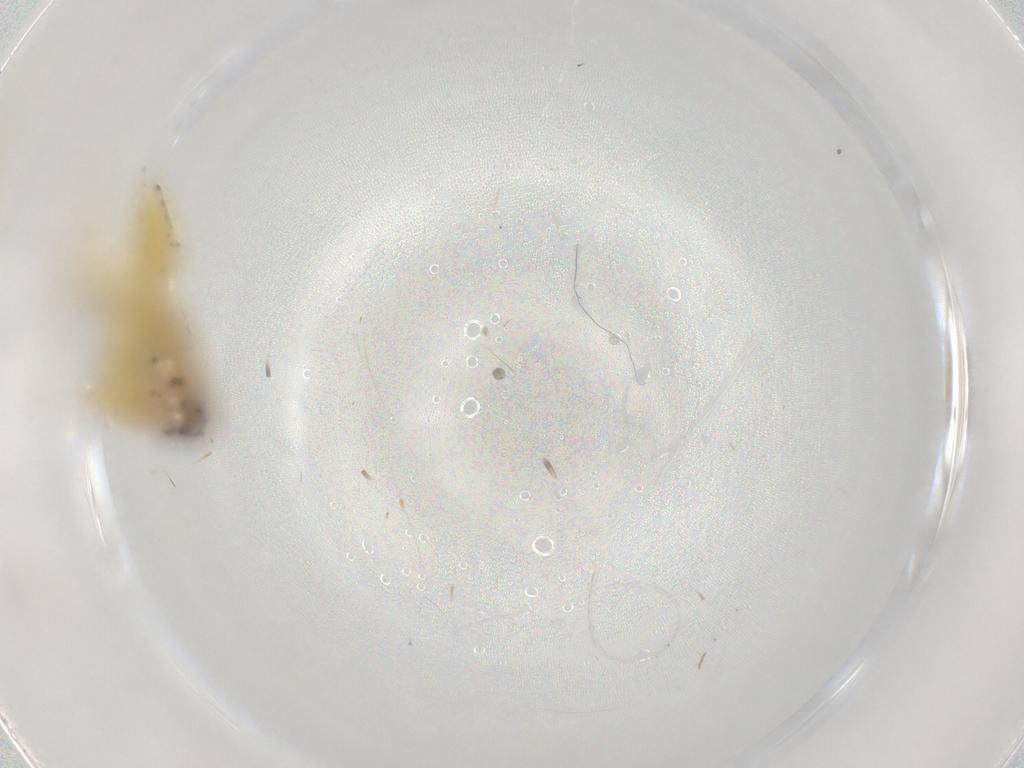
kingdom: Animalia
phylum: Arthropoda
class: Insecta
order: Hemiptera
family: Cicadellidae
